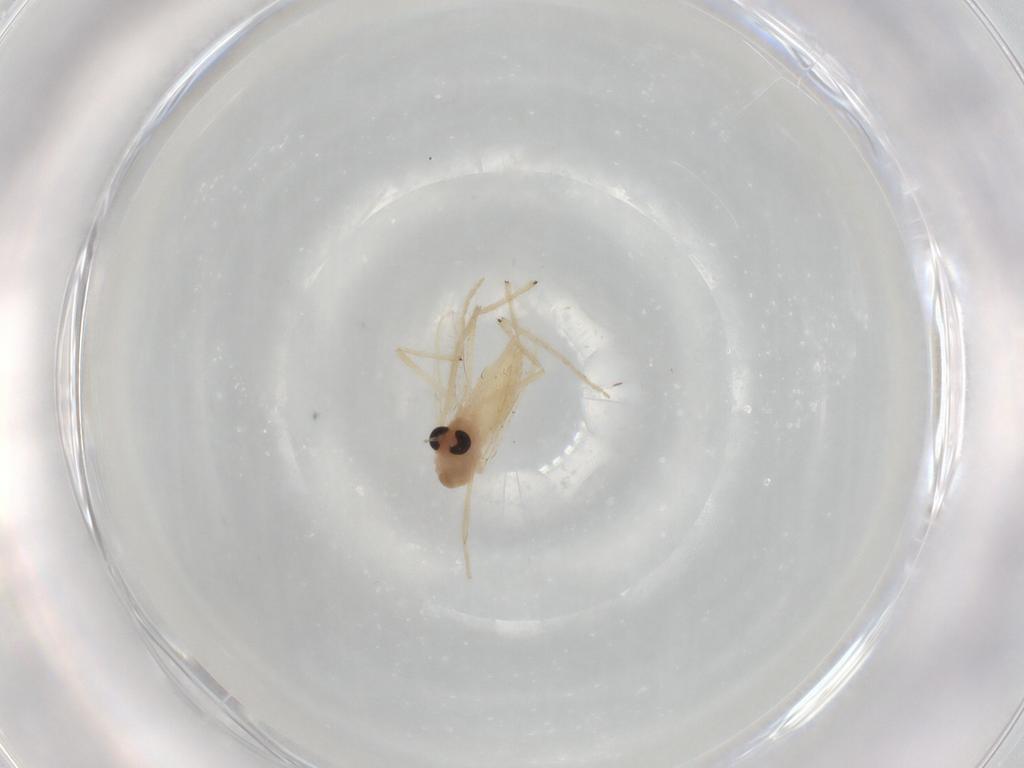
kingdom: Animalia
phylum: Arthropoda
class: Insecta
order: Diptera
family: Chironomidae
